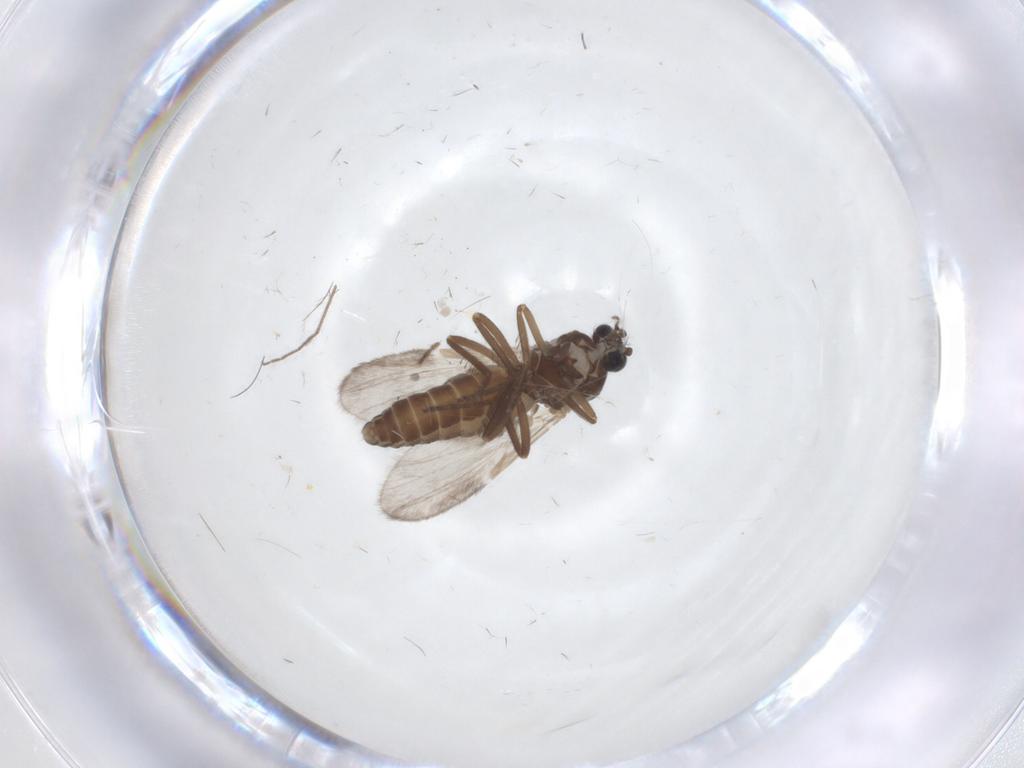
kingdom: Animalia
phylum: Arthropoda
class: Insecta
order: Diptera
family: Ceratopogonidae
